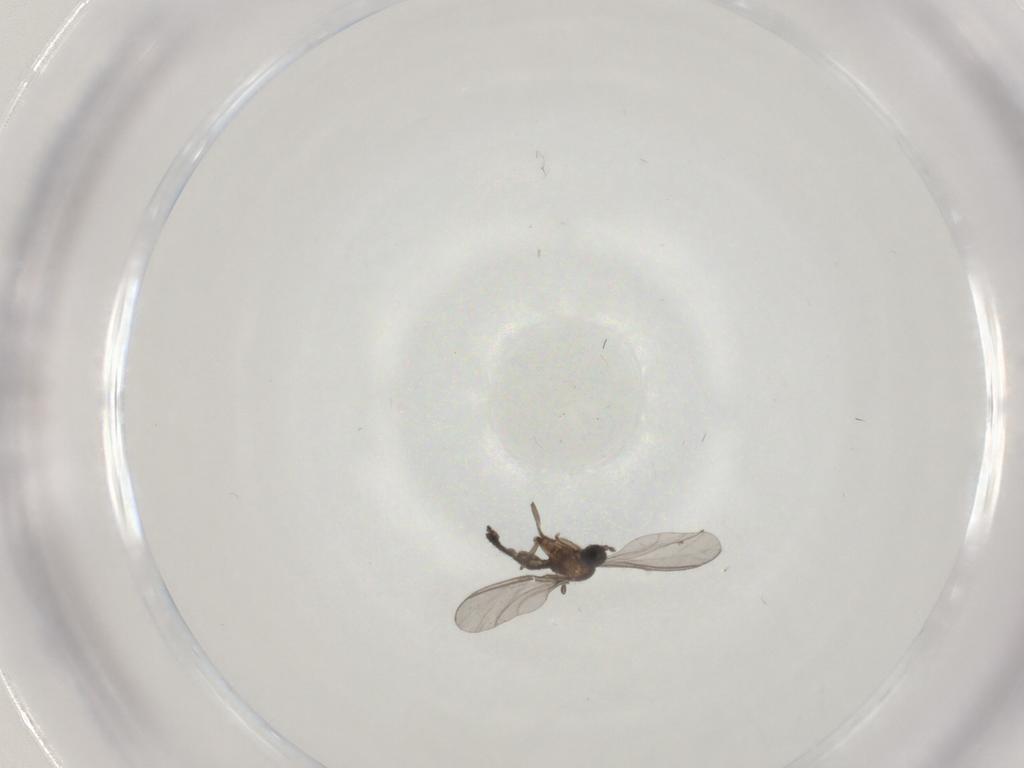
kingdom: Animalia
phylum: Arthropoda
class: Insecta
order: Diptera
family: Sciaridae
